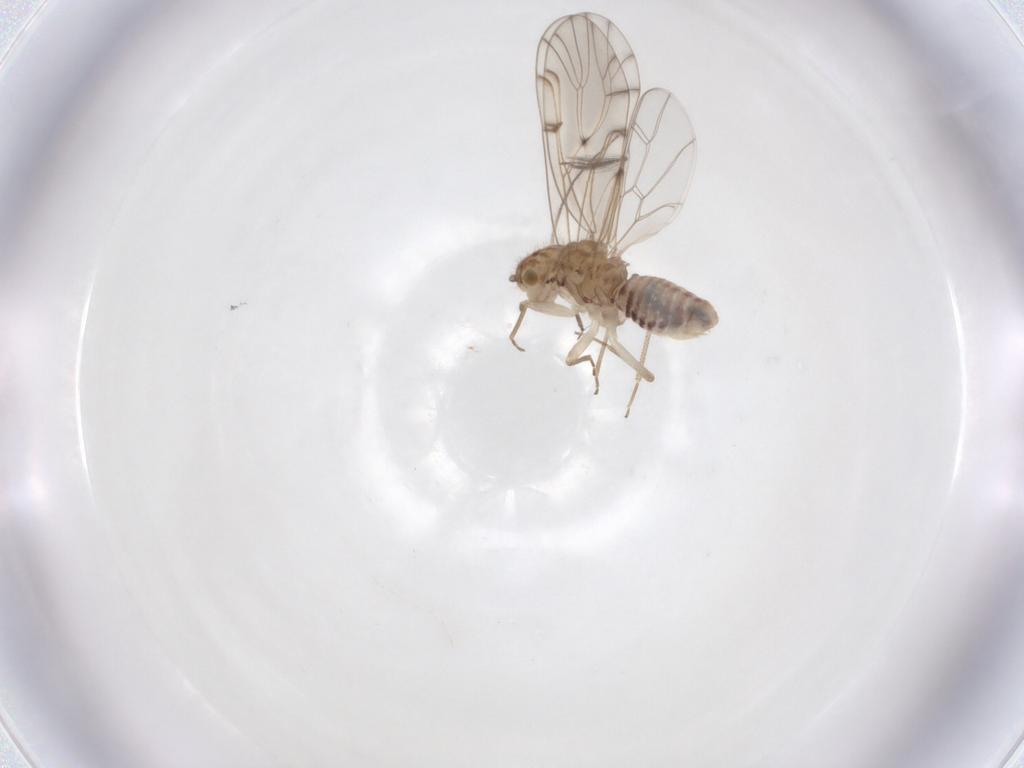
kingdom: Animalia
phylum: Arthropoda
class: Insecta
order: Diptera
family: Ceratopogonidae
